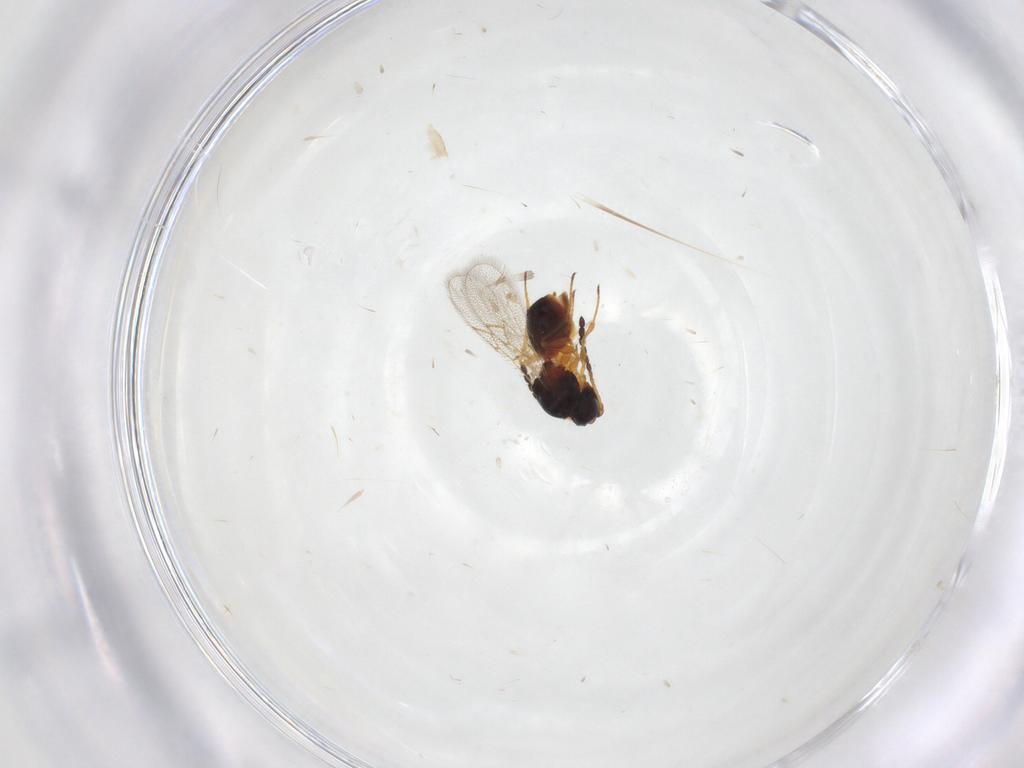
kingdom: Animalia
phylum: Arthropoda
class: Insecta
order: Hymenoptera
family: Figitidae
